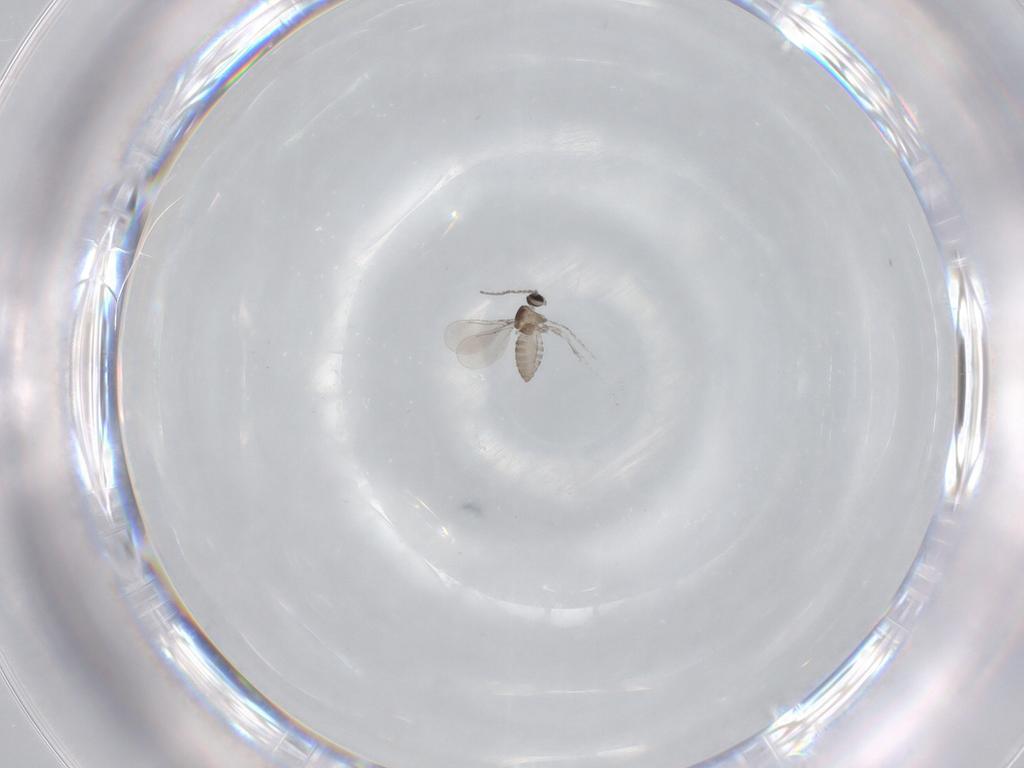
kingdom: Animalia
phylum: Arthropoda
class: Insecta
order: Diptera
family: Cecidomyiidae
